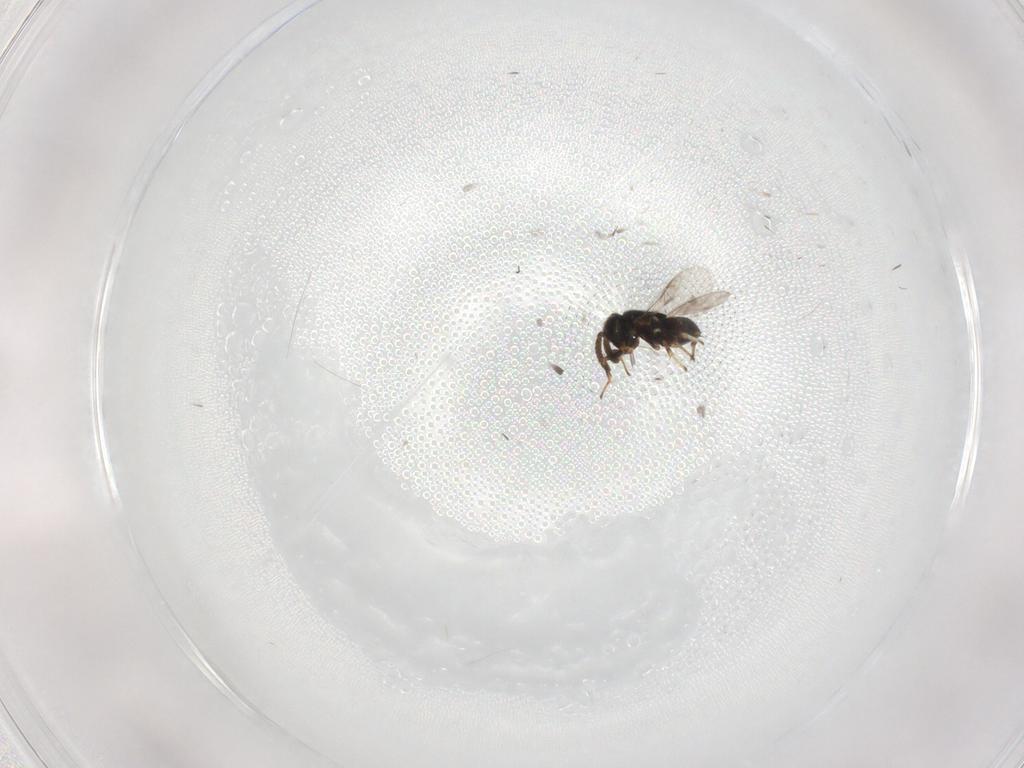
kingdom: Animalia
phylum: Arthropoda
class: Insecta
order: Hymenoptera
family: Encyrtidae
